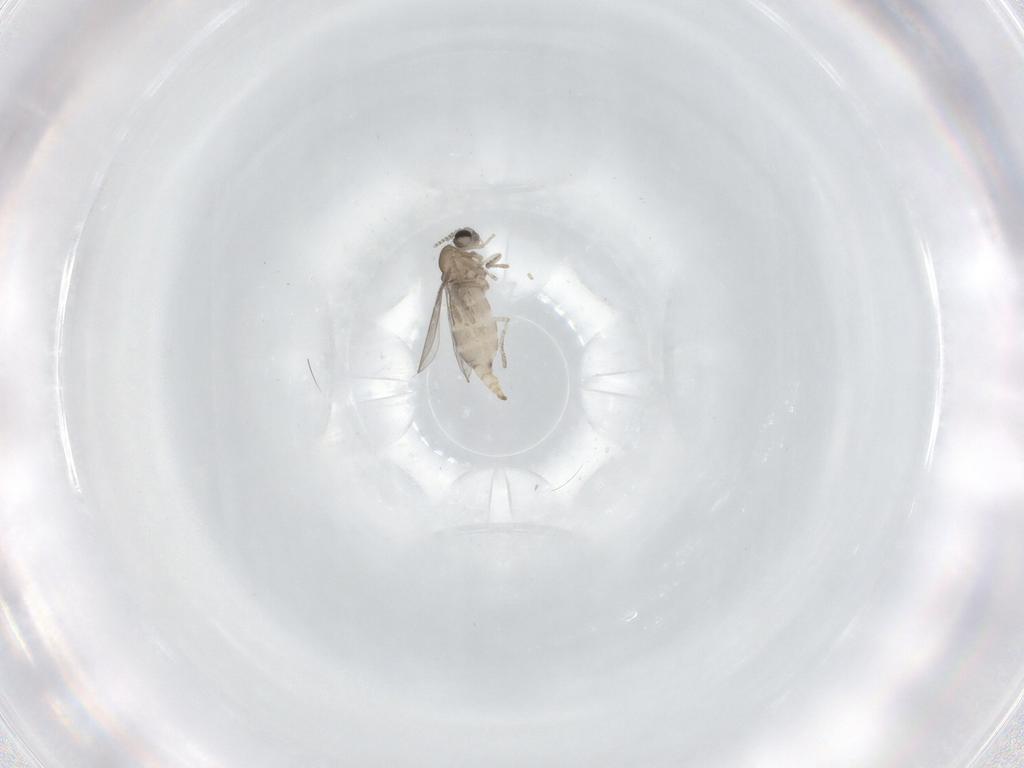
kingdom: Animalia
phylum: Arthropoda
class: Insecta
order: Diptera
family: Cecidomyiidae
